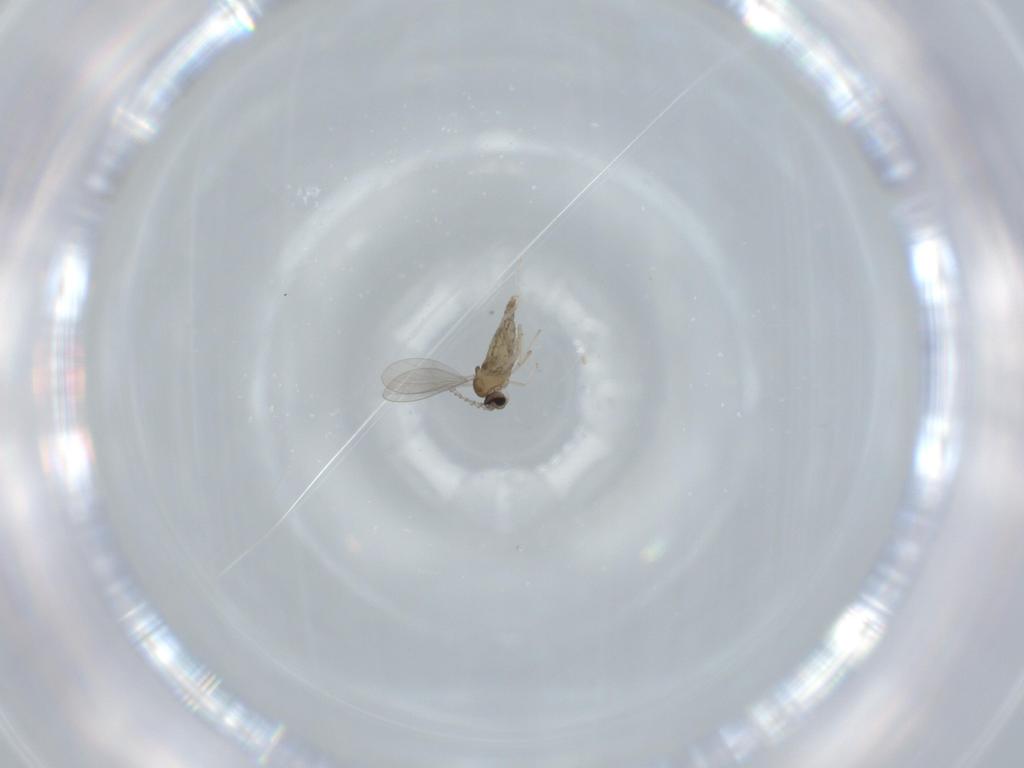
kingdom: Animalia
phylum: Arthropoda
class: Insecta
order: Diptera
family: Cecidomyiidae
